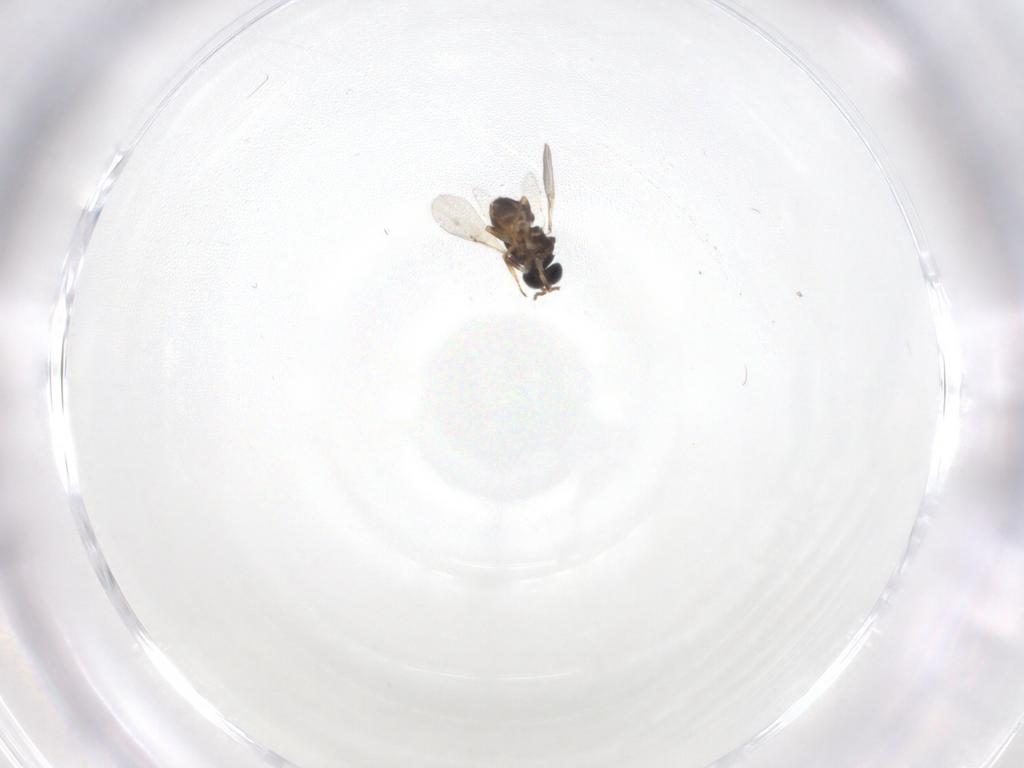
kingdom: Animalia
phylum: Arthropoda
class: Insecta
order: Hymenoptera
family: Encyrtidae
